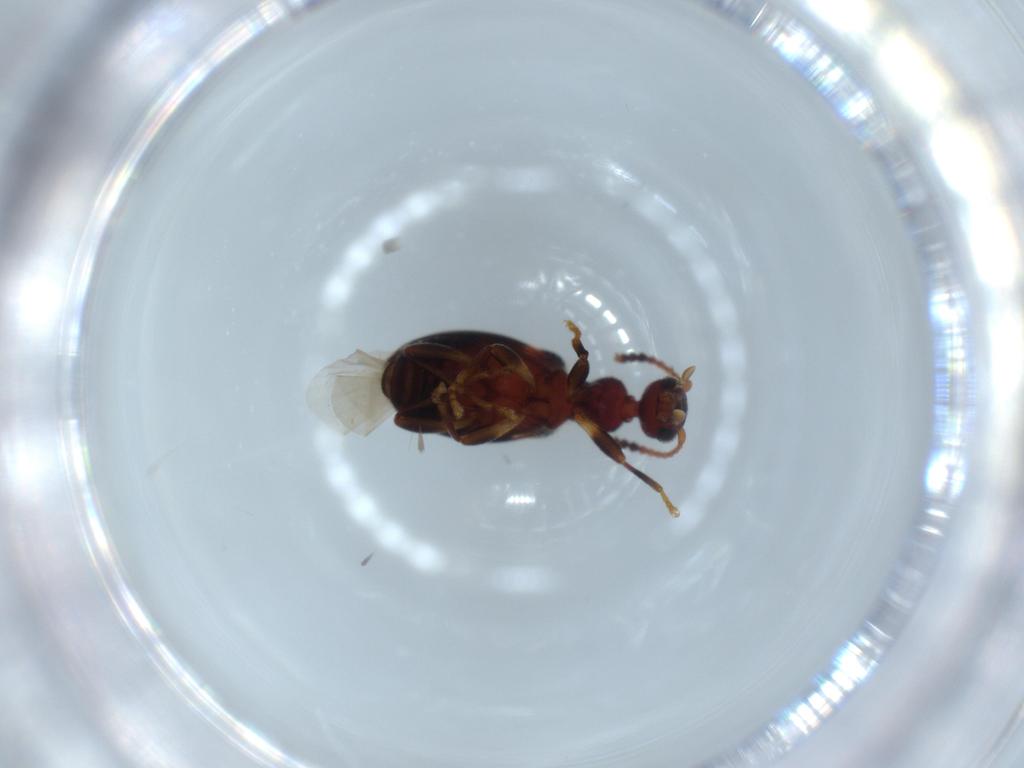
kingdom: Animalia
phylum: Arthropoda
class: Insecta
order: Coleoptera
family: Anthicidae
